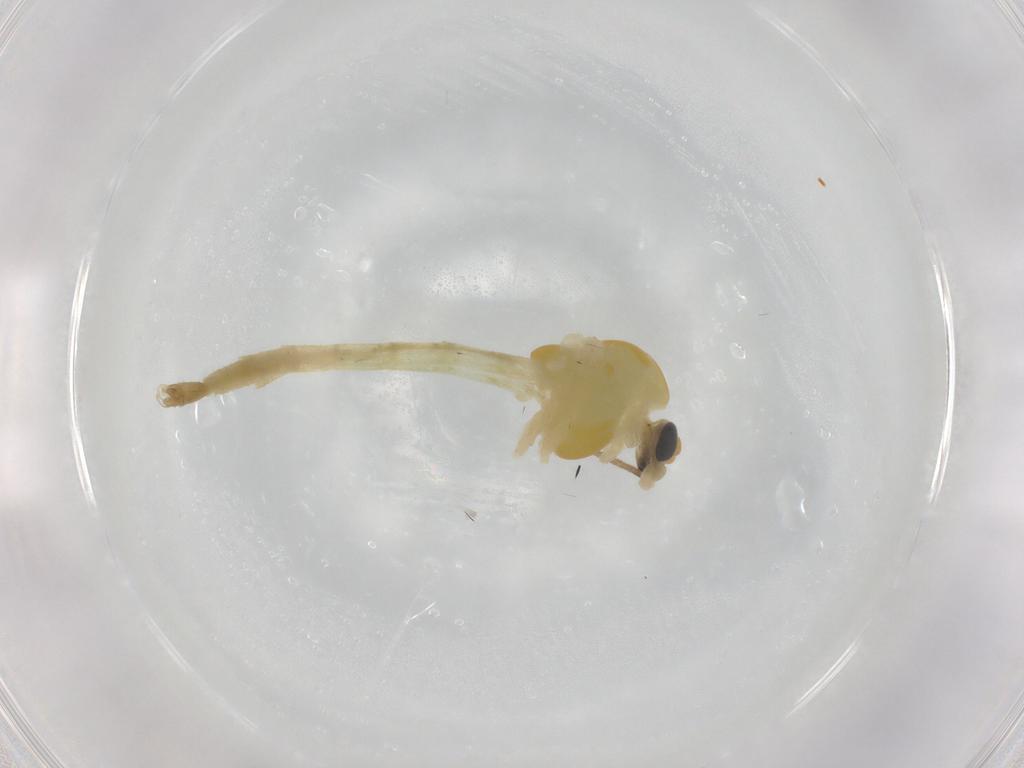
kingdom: Animalia
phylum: Arthropoda
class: Insecta
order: Diptera
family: Chironomidae
